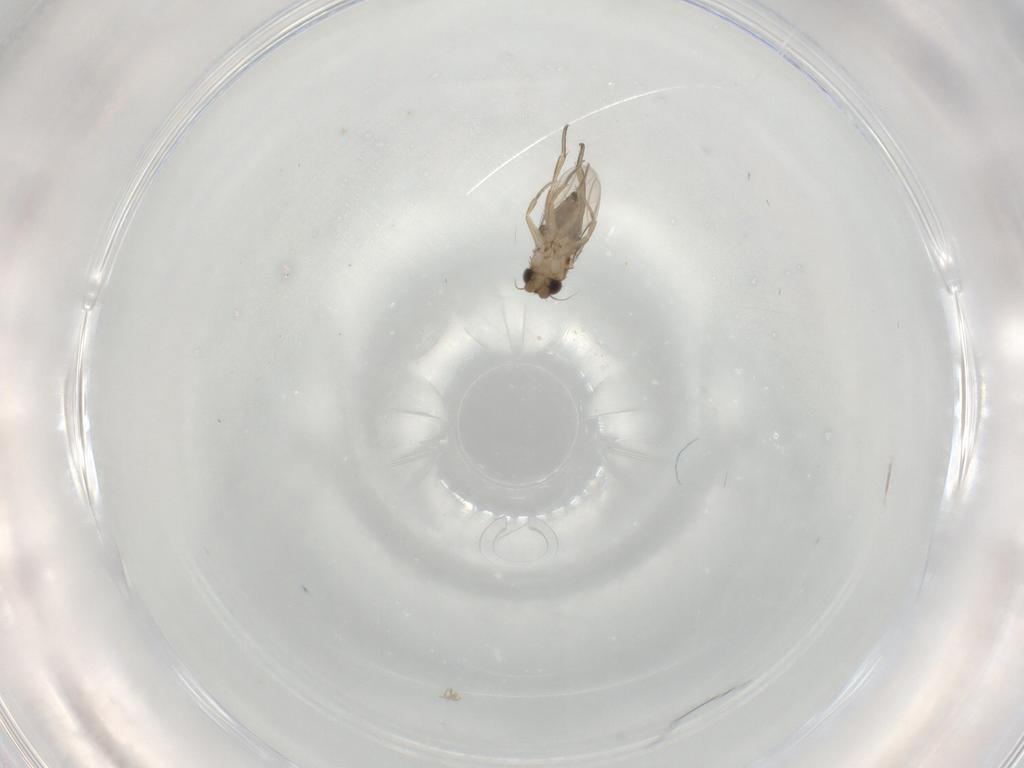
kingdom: Animalia
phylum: Arthropoda
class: Insecta
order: Diptera
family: Phoridae
